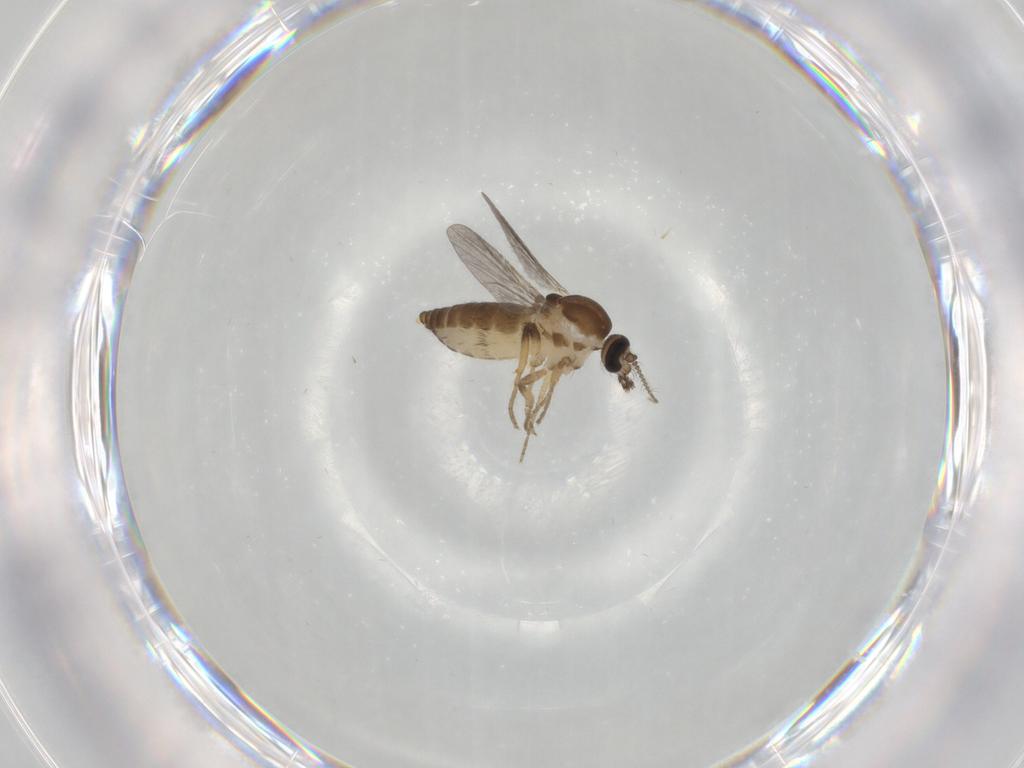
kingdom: Animalia
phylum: Arthropoda
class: Insecta
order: Diptera
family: Ceratopogonidae
